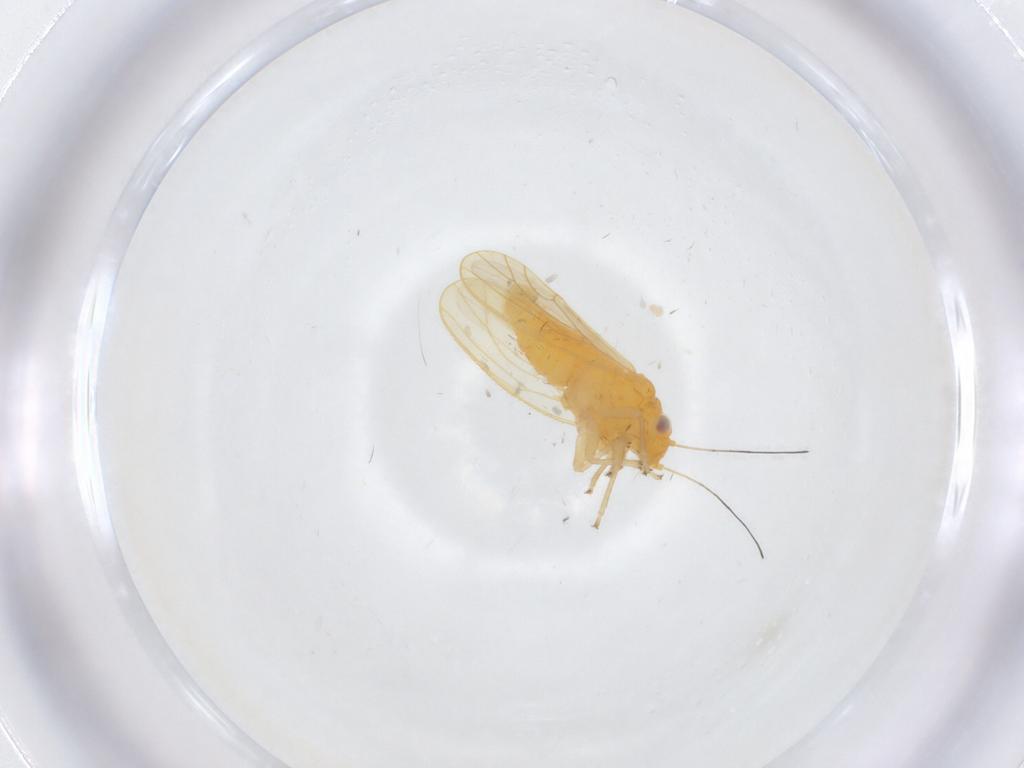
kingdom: Animalia
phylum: Arthropoda
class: Insecta
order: Hemiptera
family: Psyllidae
